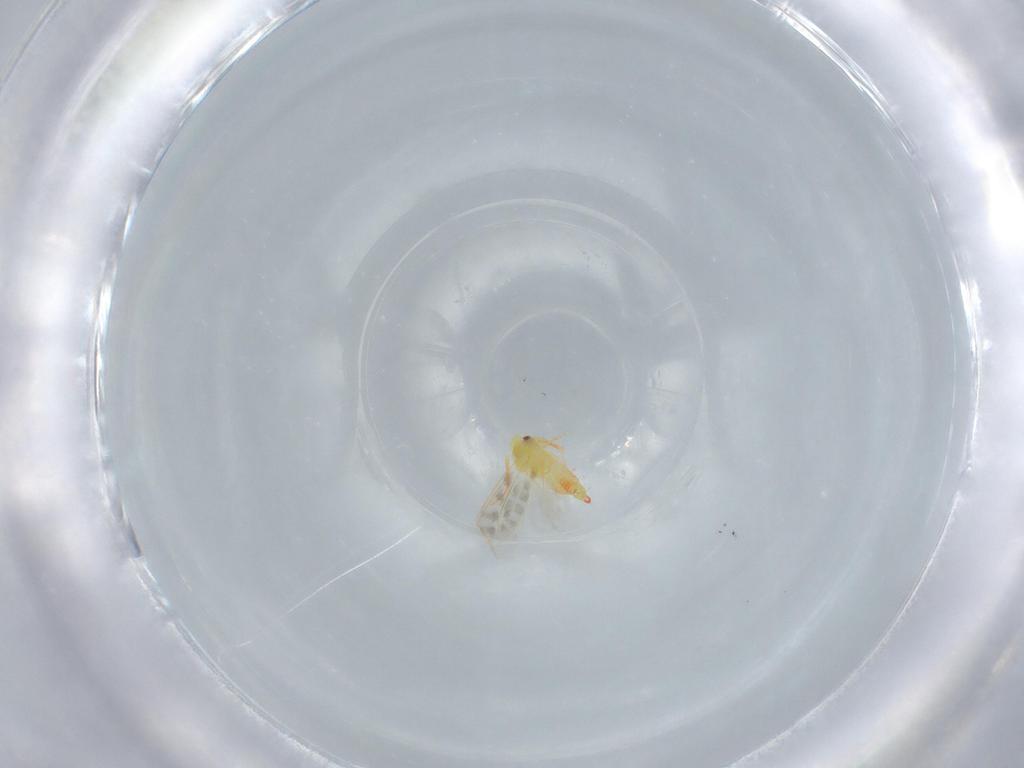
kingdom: Animalia
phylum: Arthropoda
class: Insecta
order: Hemiptera
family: Aleyrodidae
